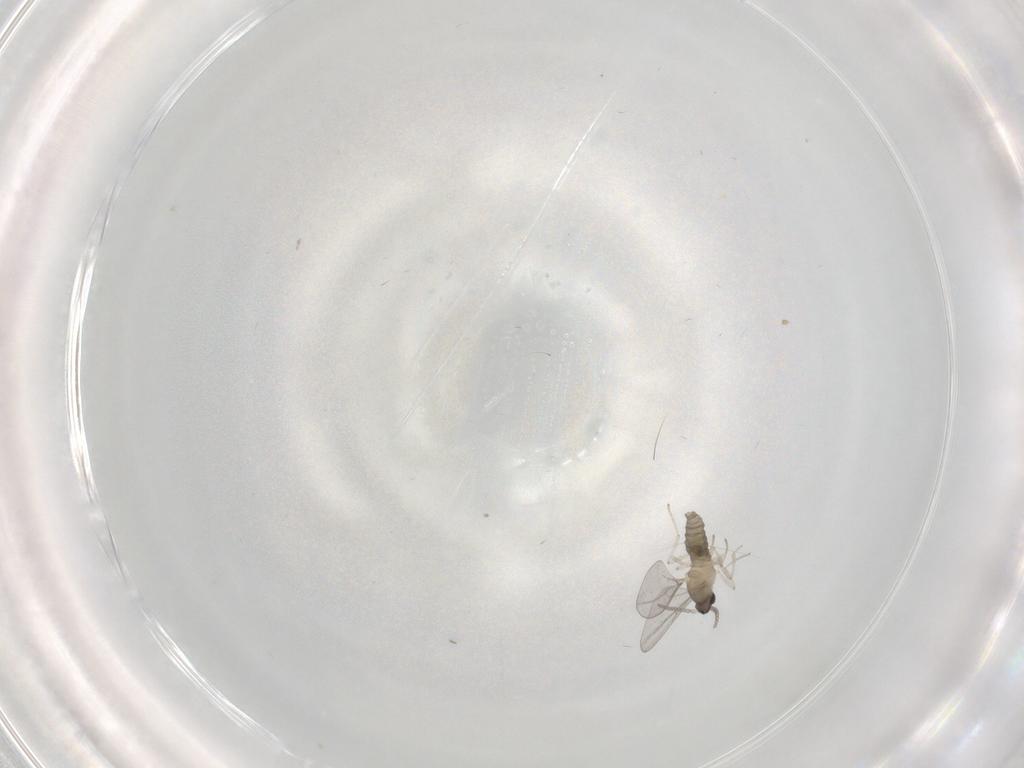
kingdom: Animalia
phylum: Arthropoda
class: Insecta
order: Diptera
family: Cecidomyiidae
